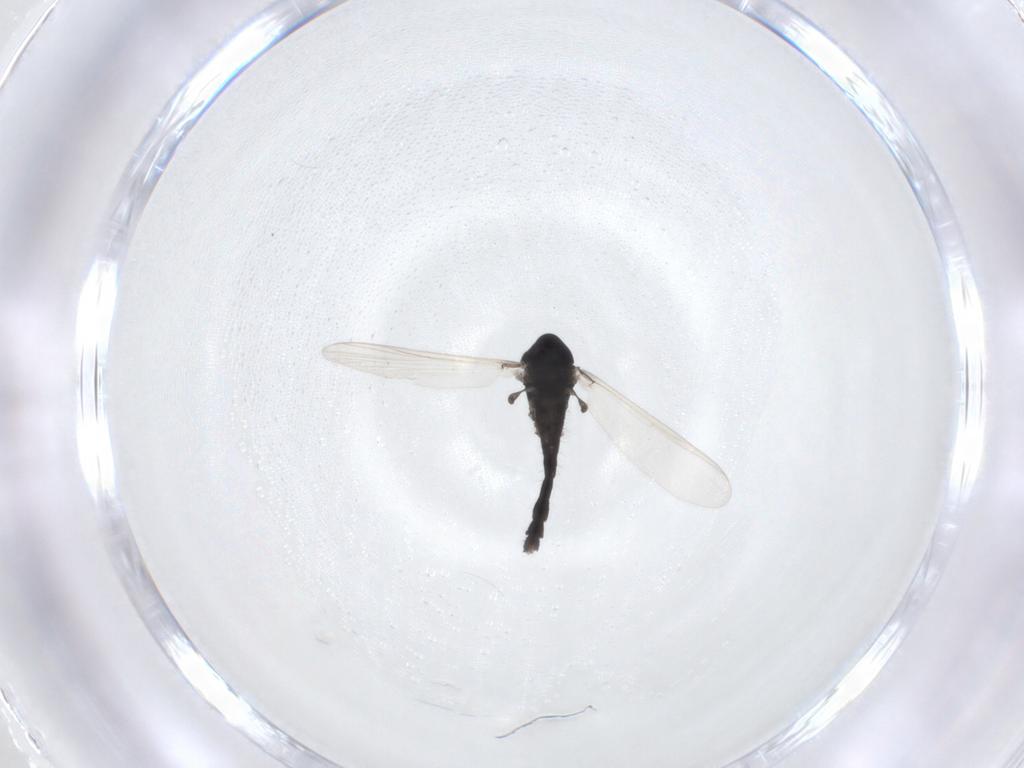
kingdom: Animalia
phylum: Arthropoda
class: Insecta
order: Diptera
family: Chironomidae
